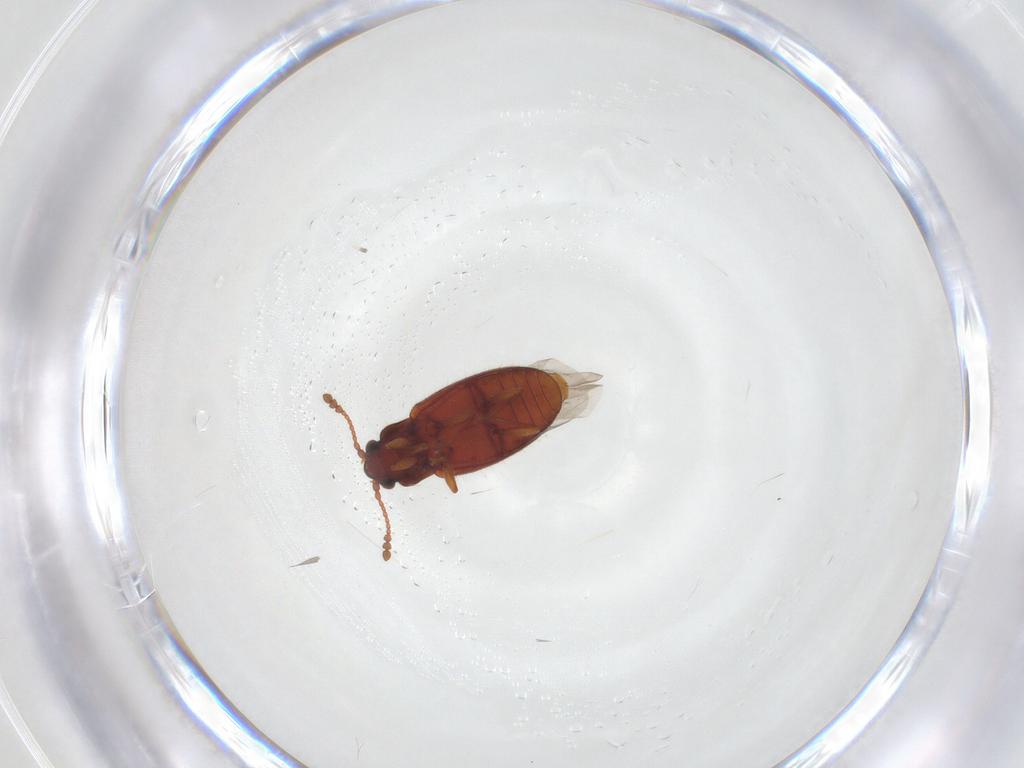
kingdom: Animalia
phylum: Arthropoda
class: Insecta
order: Coleoptera
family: Cryptophagidae
